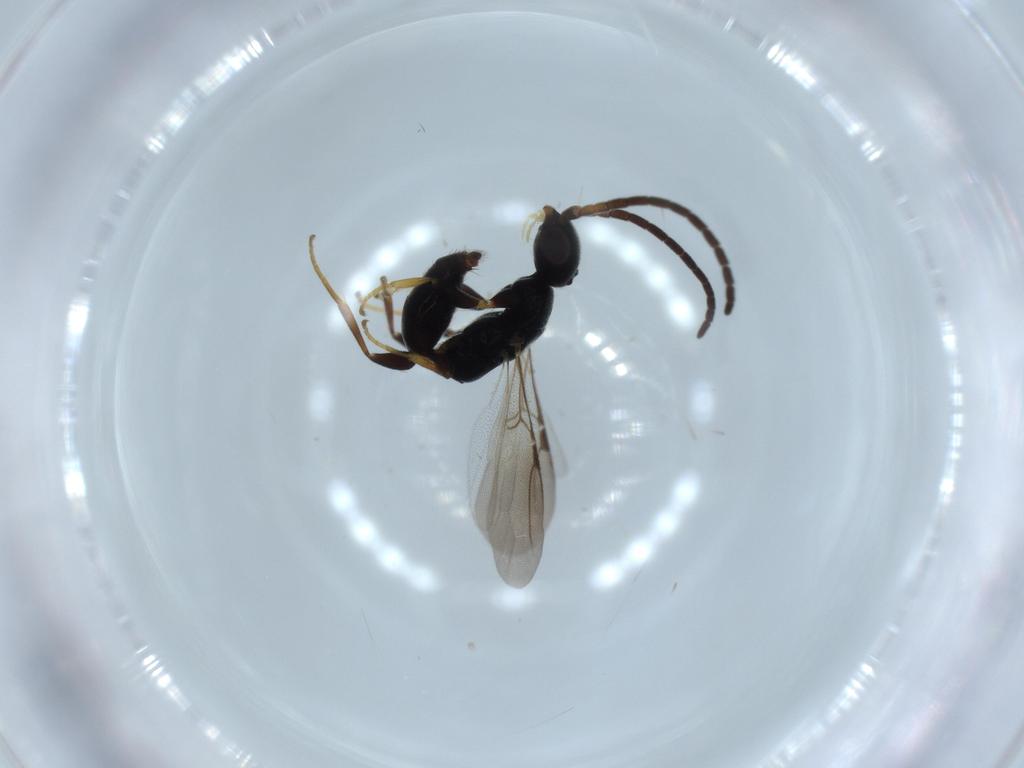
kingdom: Animalia
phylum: Arthropoda
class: Insecta
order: Hymenoptera
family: Bethylidae
